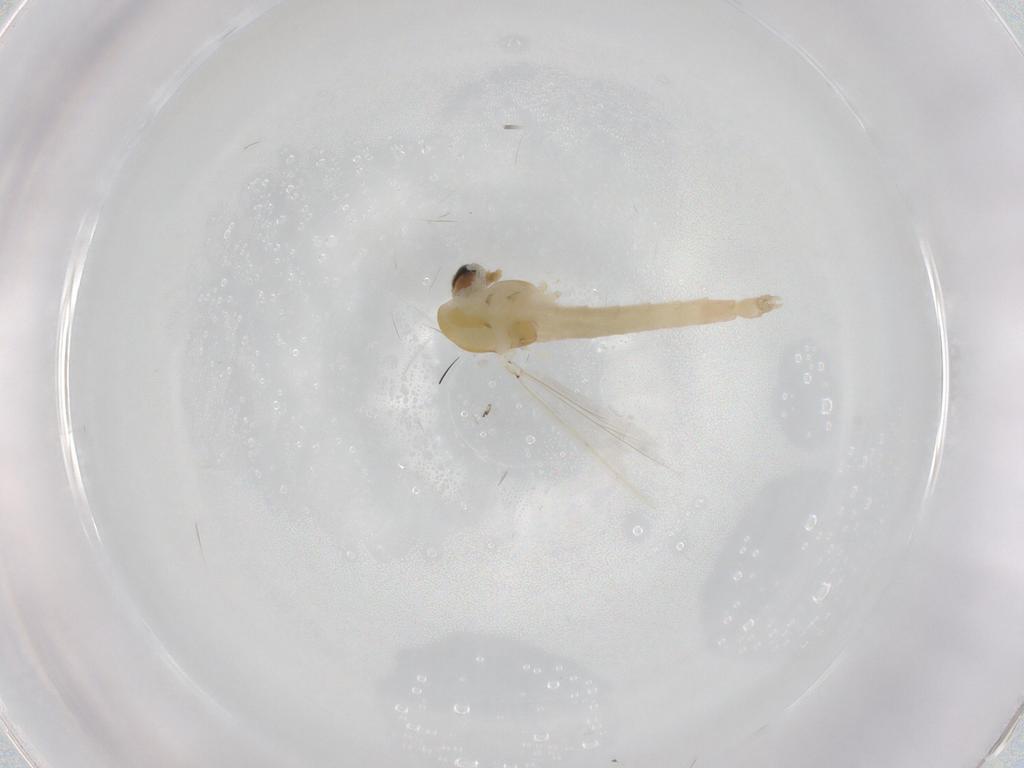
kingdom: Animalia
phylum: Arthropoda
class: Insecta
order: Diptera
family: Chironomidae
